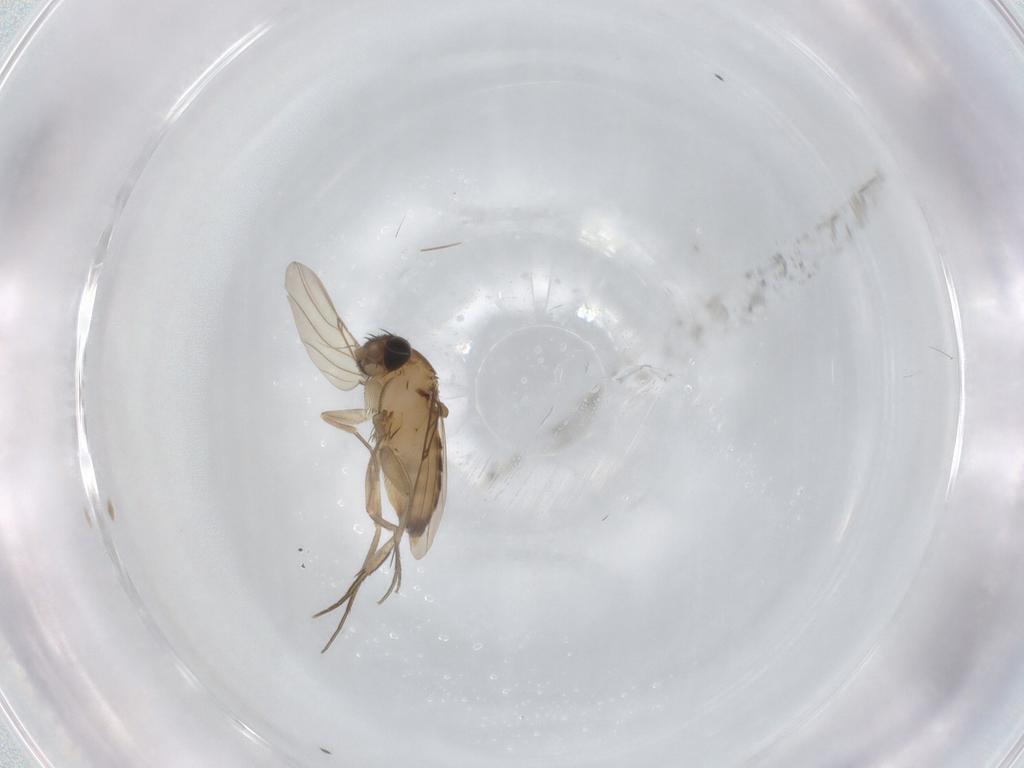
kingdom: Animalia
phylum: Arthropoda
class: Insecta
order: Diptera
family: Phoridae
